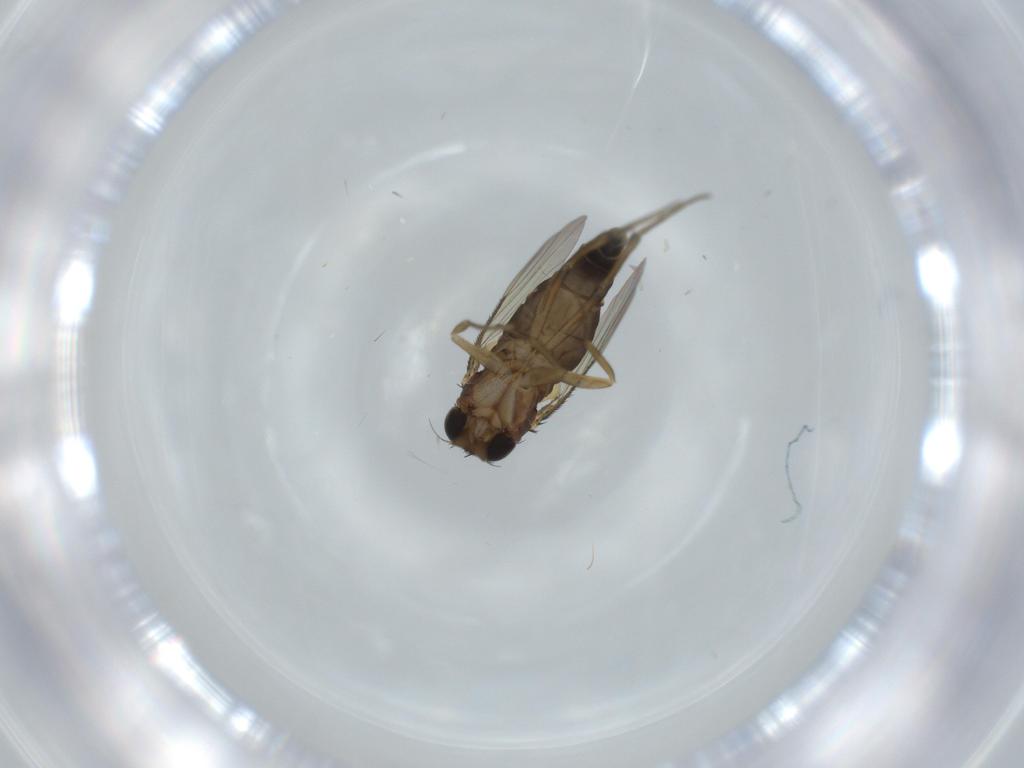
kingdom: Animalia
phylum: Arthropoda
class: Insecta
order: Diptera
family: Phoridae
